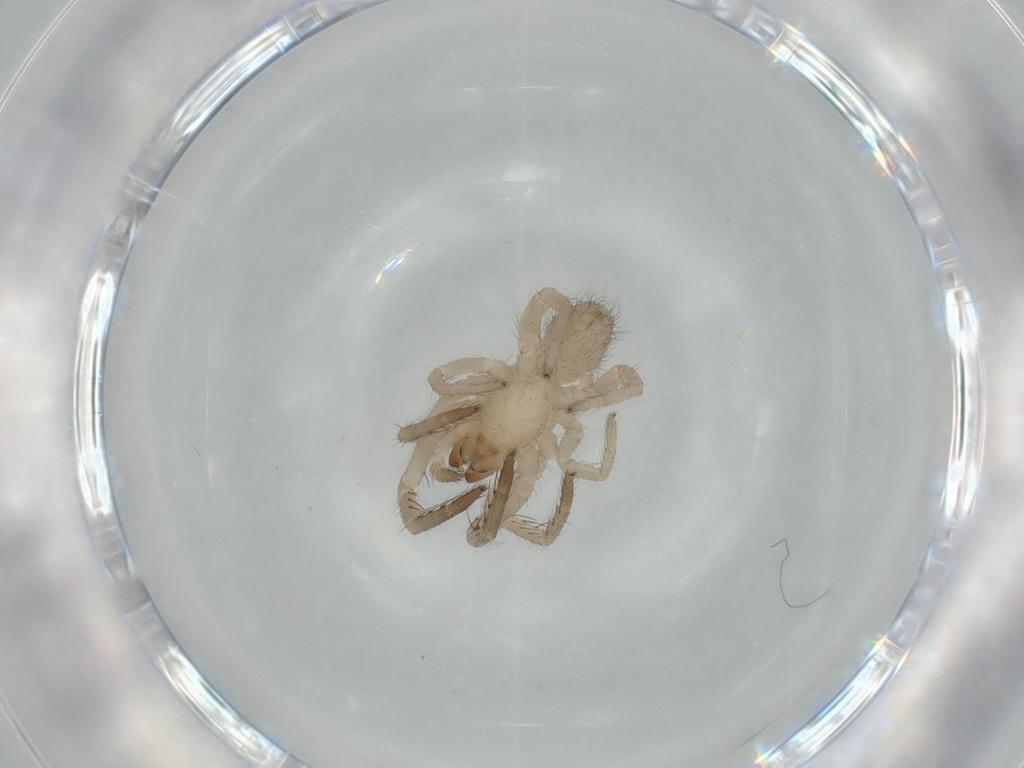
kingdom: Animalia
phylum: Arthropoda
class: Arachnida
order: Araneae
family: Segestriidae
